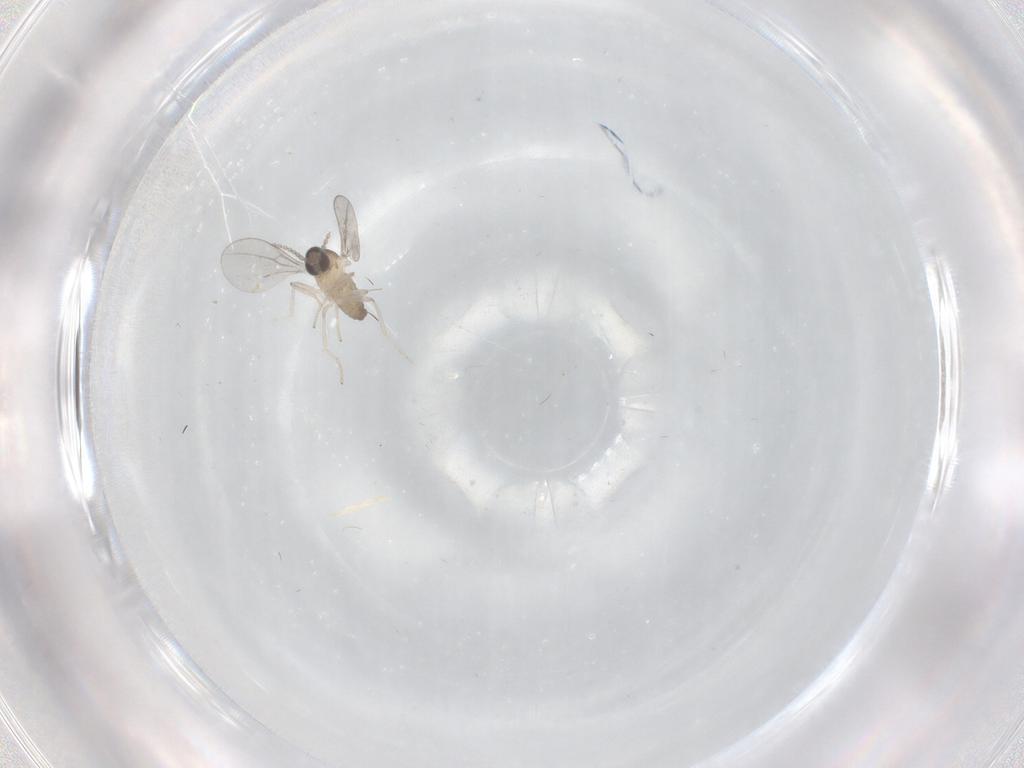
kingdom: Animalia
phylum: Arthropoda
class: Insecta
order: Diptera
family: Cecidomyiidae
